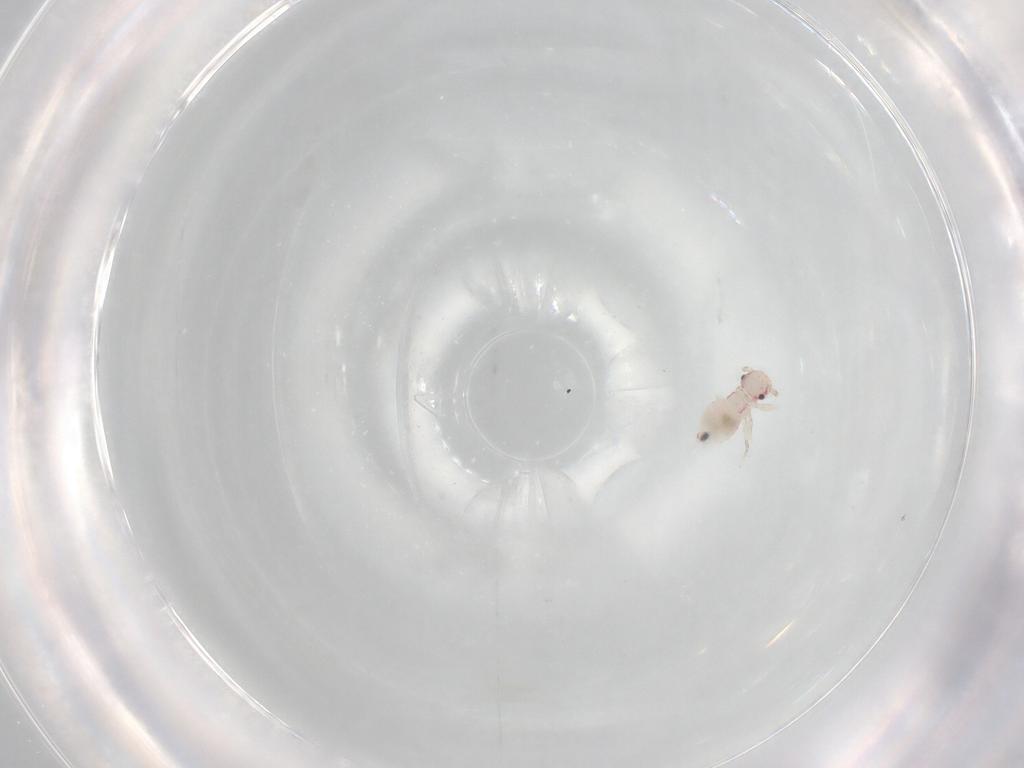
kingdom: Animalia
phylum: Arthropoda
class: Insecta
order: Psocodea
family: Hemipsocidae
